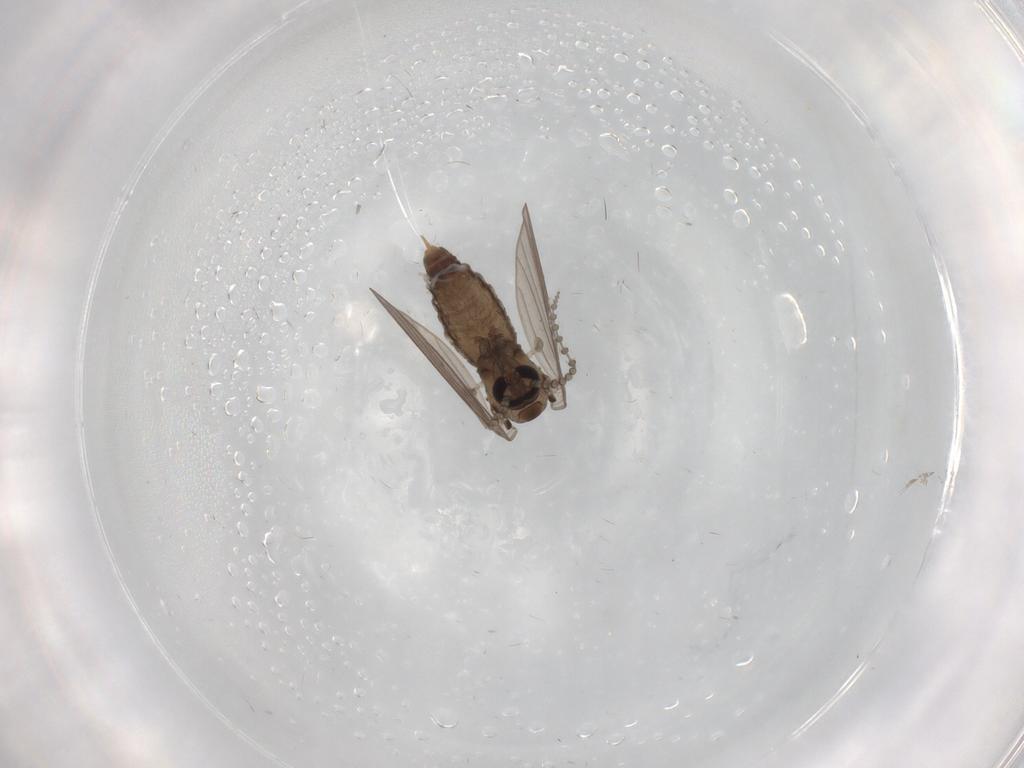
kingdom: Animalia
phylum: Arthropoda
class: Insecta
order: Diptera
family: Psychodidae
